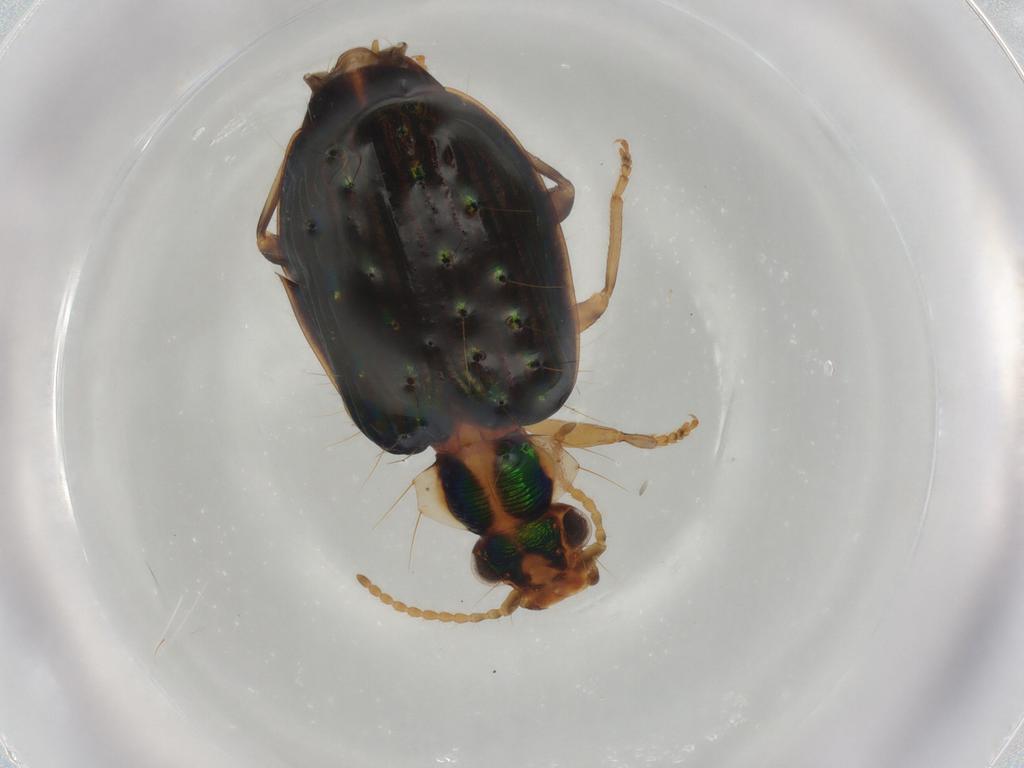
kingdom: Animalia
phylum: Arthropoda
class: Insecta
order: Coleoptera
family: Carabidae
